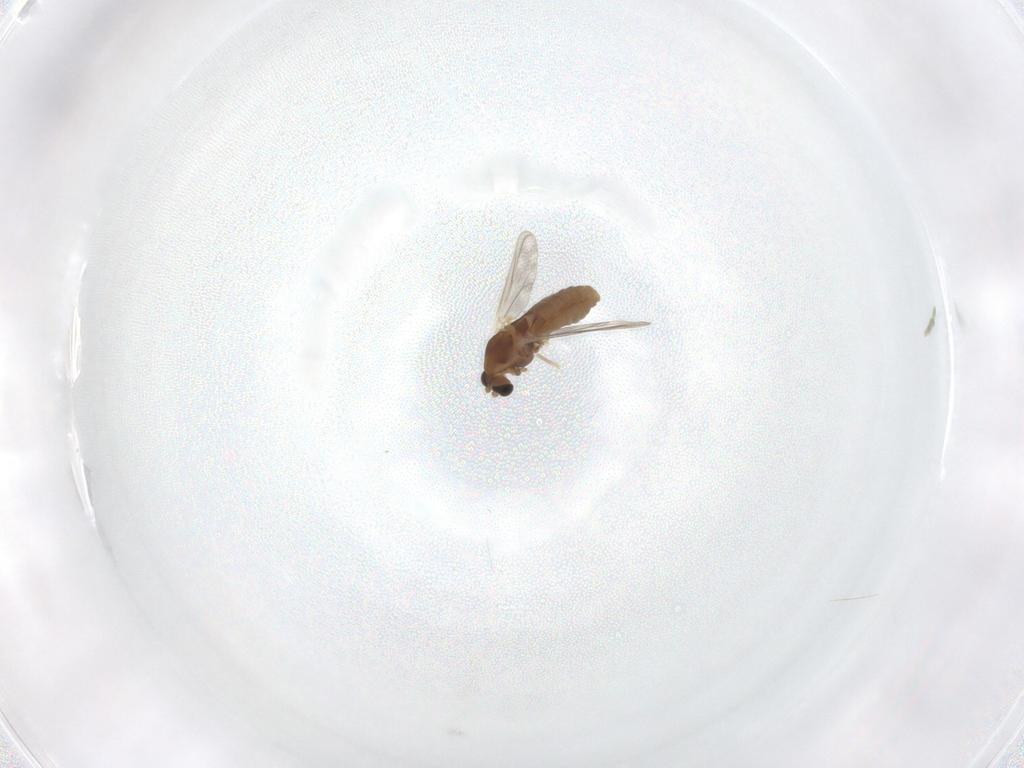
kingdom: Animalia
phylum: Arthropoda
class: Insecta
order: Diptera
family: Chironomidae
